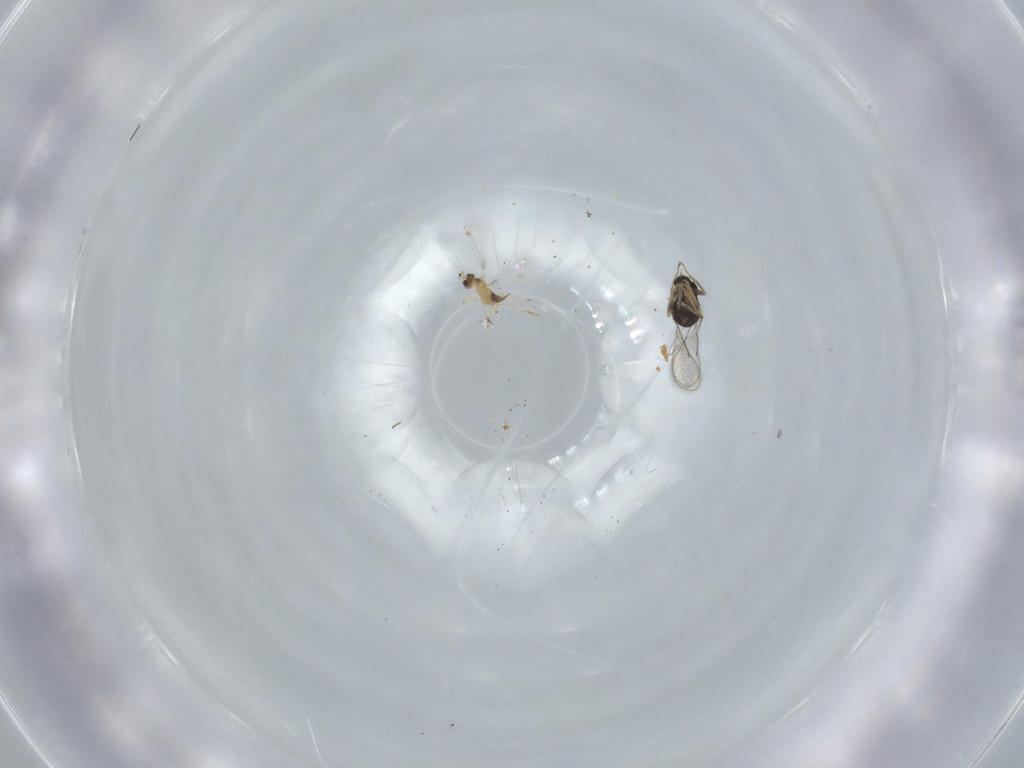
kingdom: Animalia
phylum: Arthropoda
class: Insecta
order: Hymenoptera
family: Aphelinidae
